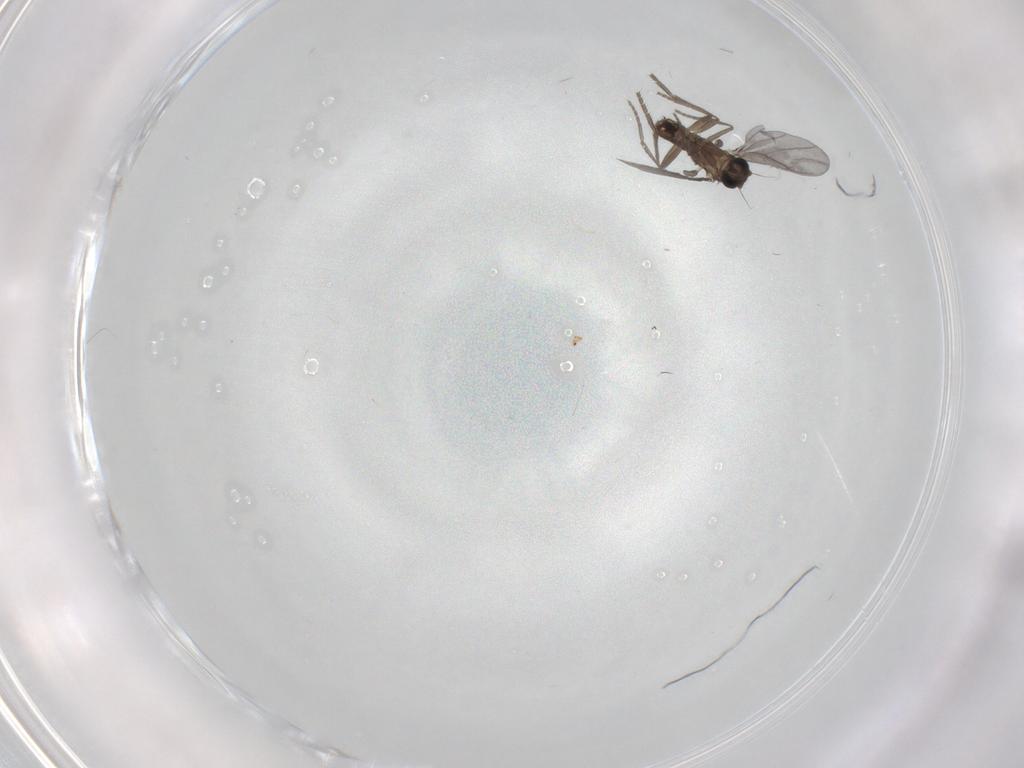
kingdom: Animalia
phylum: Arthropoda
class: Insecta
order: Diptera
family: Phoridae
